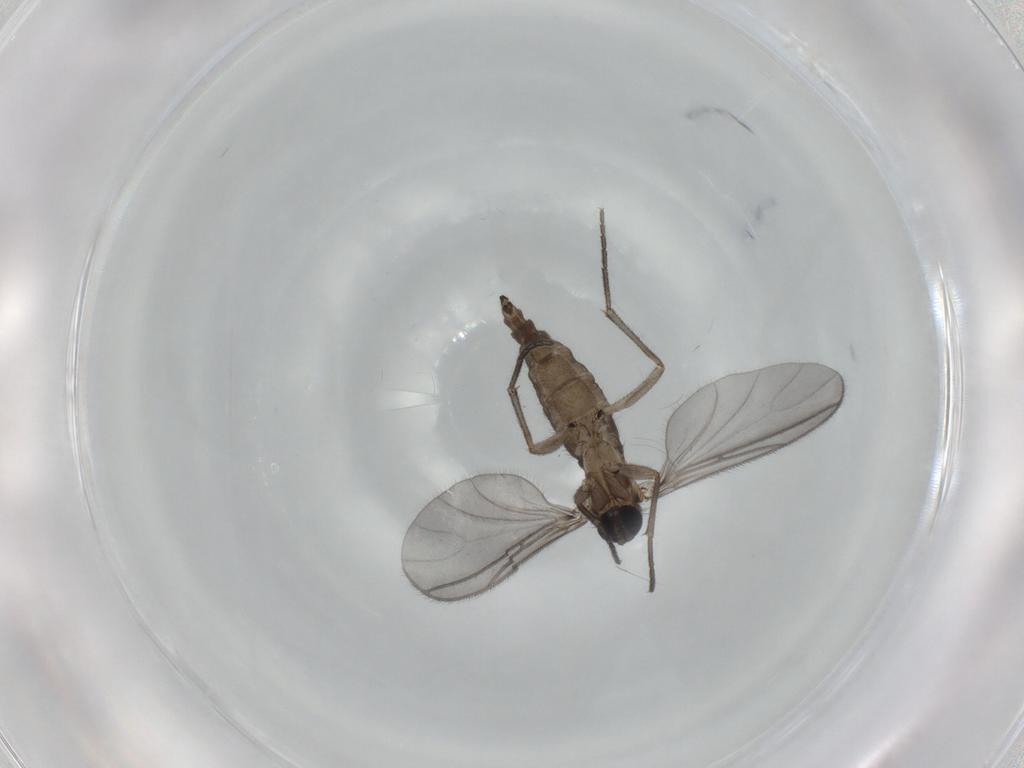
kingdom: Animalia
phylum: Arthropoda
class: Insecta
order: Diptera
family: Sciaridae
